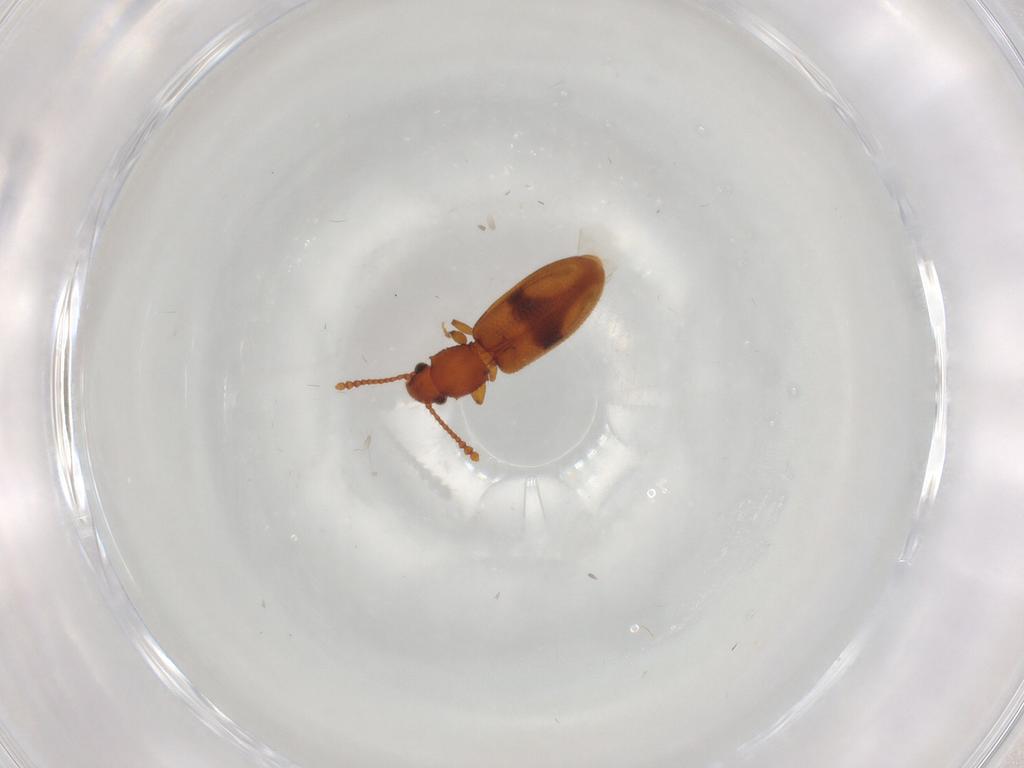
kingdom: Animalia
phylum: Arthropoda
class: Insecta
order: Coleoptera
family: Silvanidae
